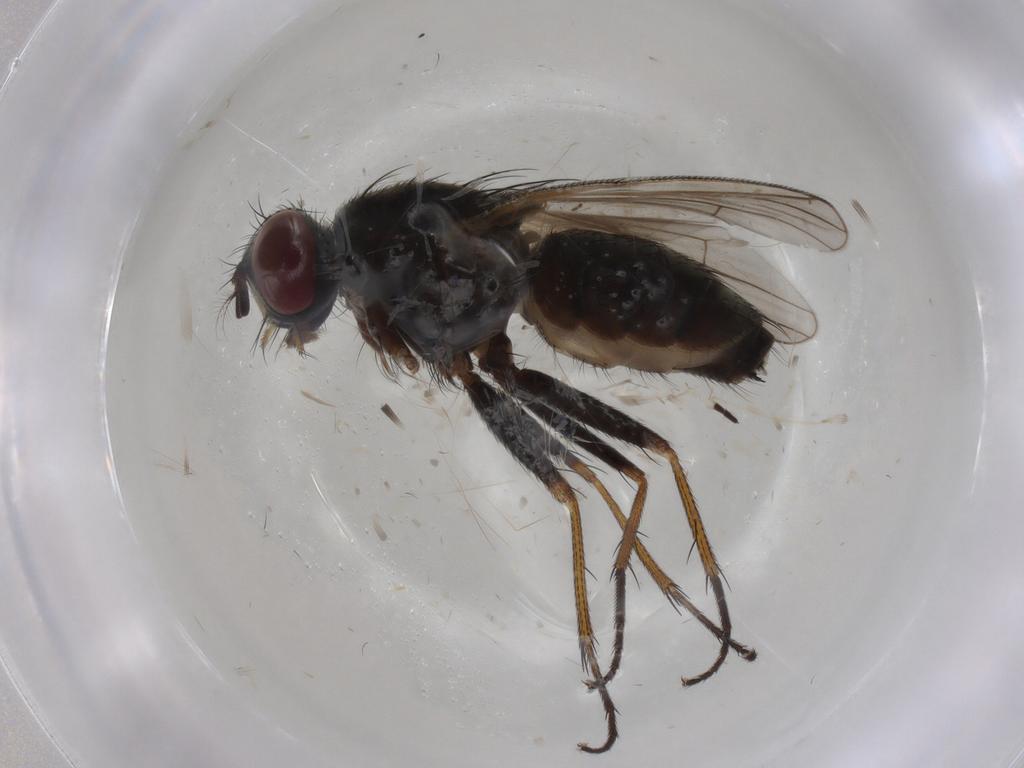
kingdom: Animalia
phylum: Arthropoda
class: Insecta
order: Diptera
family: Muscidae
